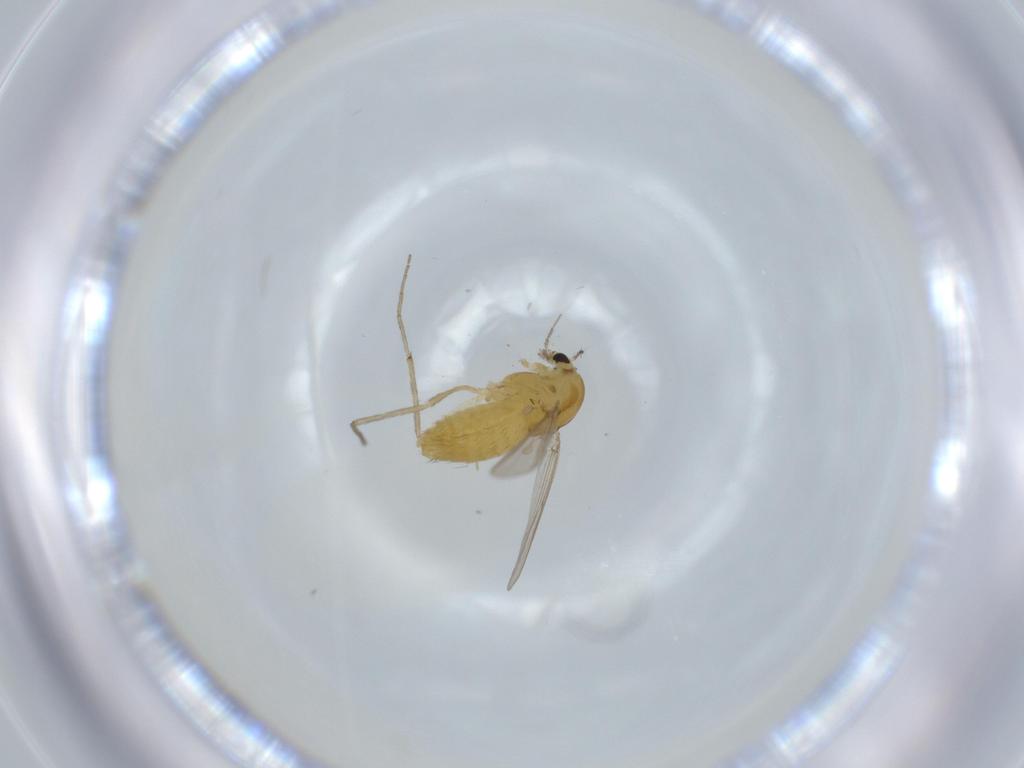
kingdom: Animalia
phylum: Arthropoda
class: Insecta
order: Diptera
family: Chironomidae
